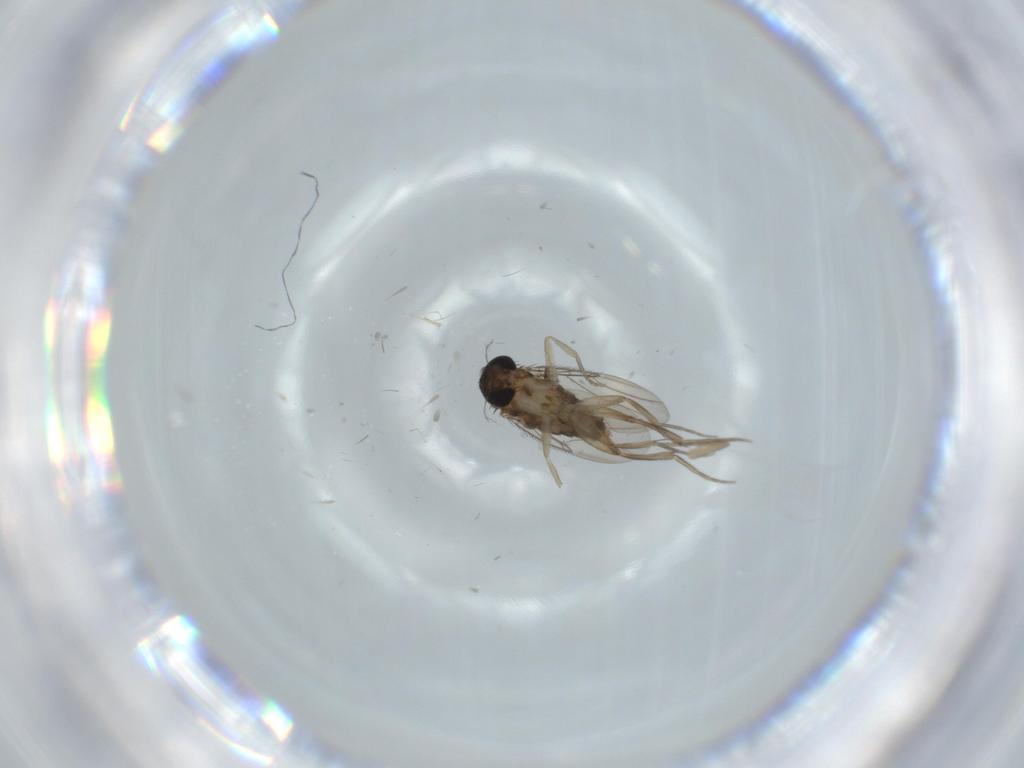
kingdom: Animalia
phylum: Arthropoda
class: Insecta
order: Diptera
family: Phoridae
